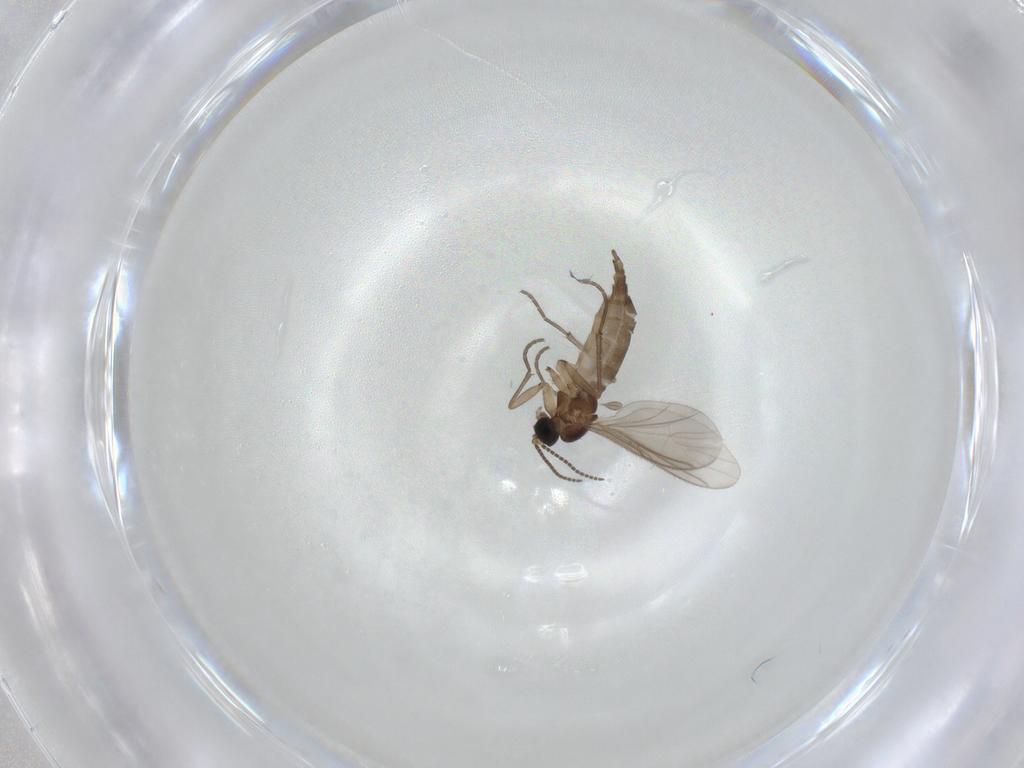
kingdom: Animalia
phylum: Arthropoda
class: Insecta
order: Diptera
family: Sciaridae
